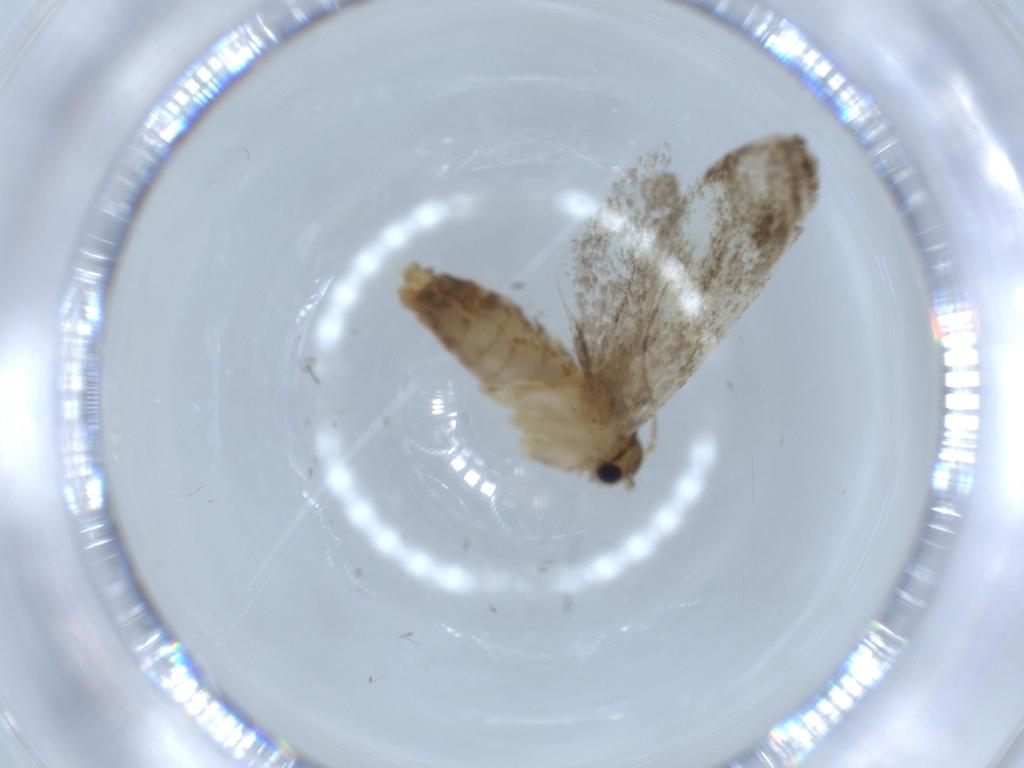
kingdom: Animalia
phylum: Arthropoda
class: Insecta
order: Lepidoptera
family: Tineidae
